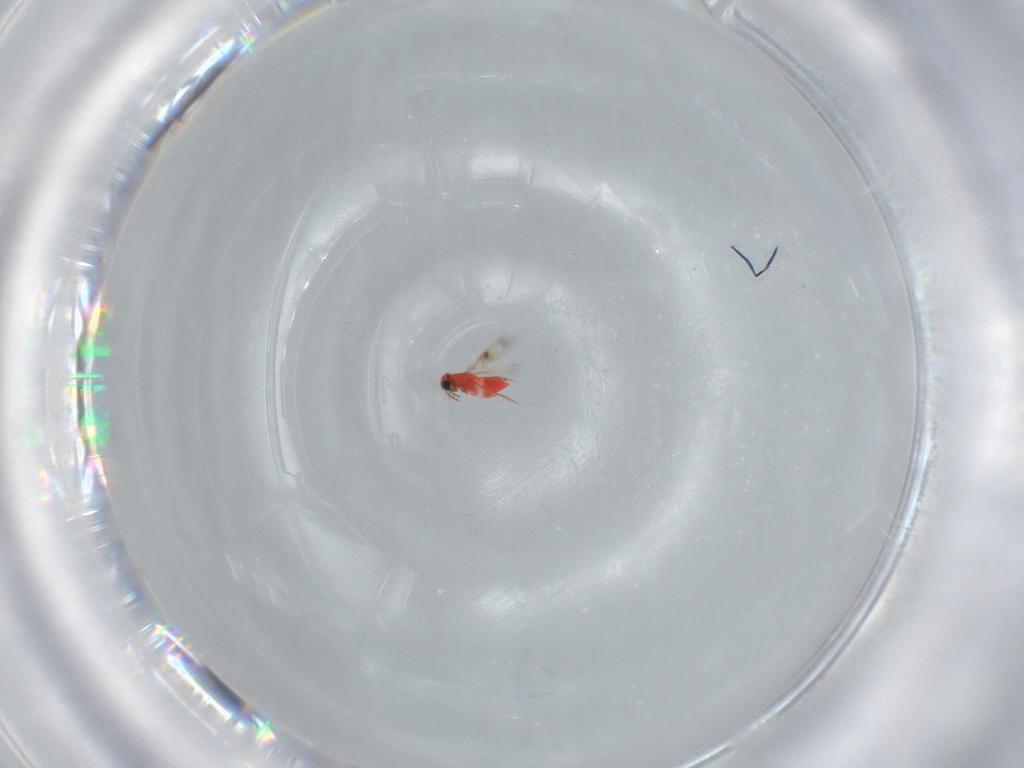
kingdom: Animalia
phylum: Arthropoda
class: Insecta
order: Hymenoptera
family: Trichogrammatidae
